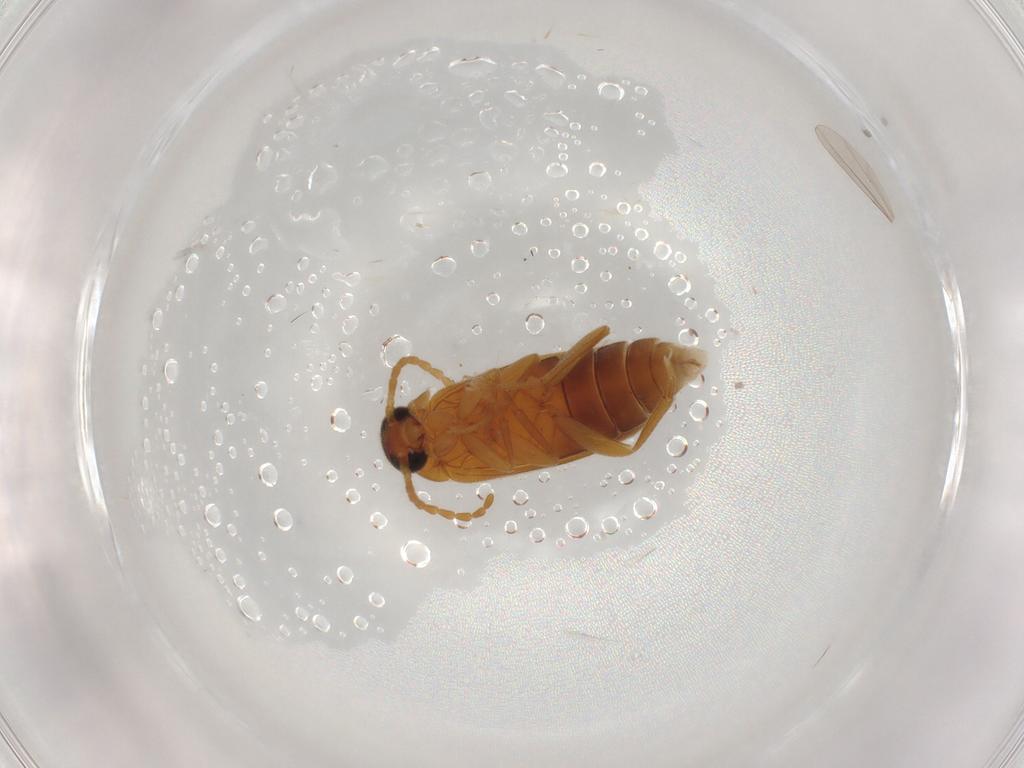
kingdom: Animalia
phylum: Arthropoda
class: Insecta
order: Coleoptera
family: Scraptiidae
